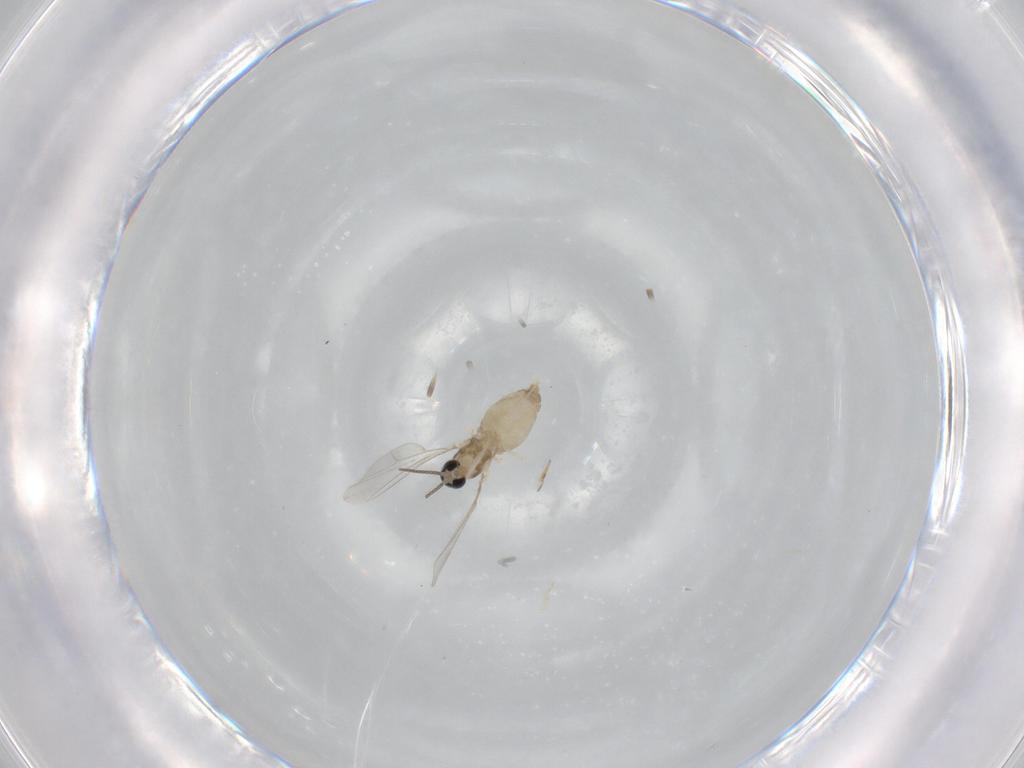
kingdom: Animalia
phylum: Arthropoda
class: Insecta
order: Diptera
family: Cecidomyiidae
